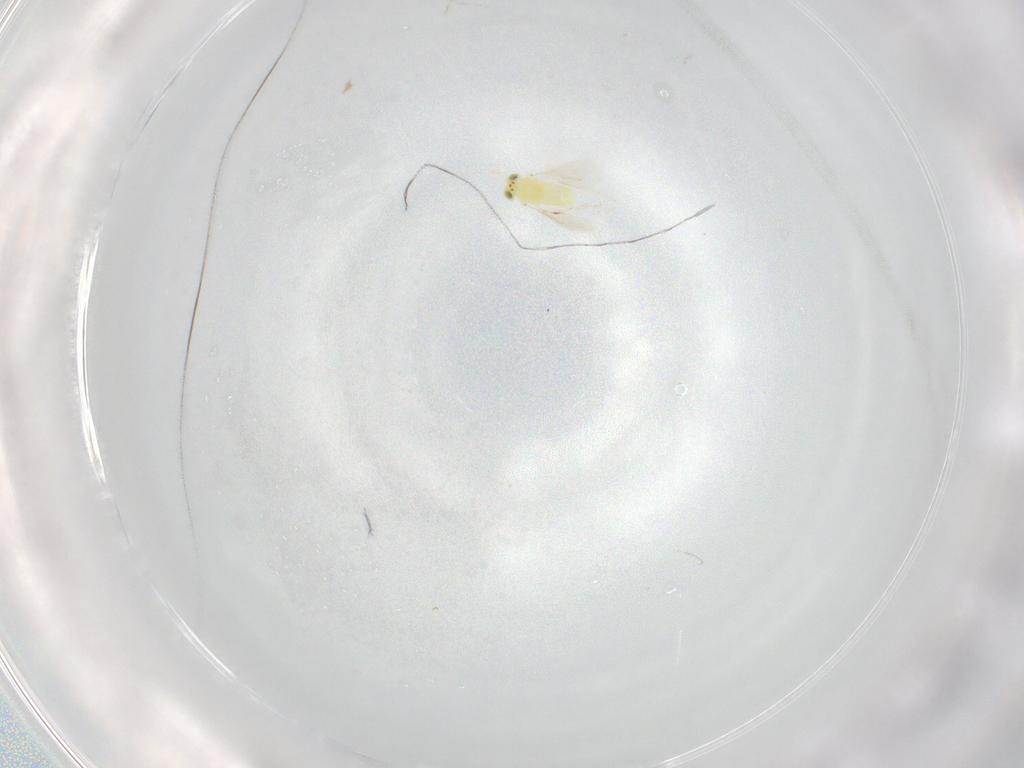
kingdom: Animalia
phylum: Arthropoda
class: Insecta
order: Hymenoptera
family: Aphelinidae
